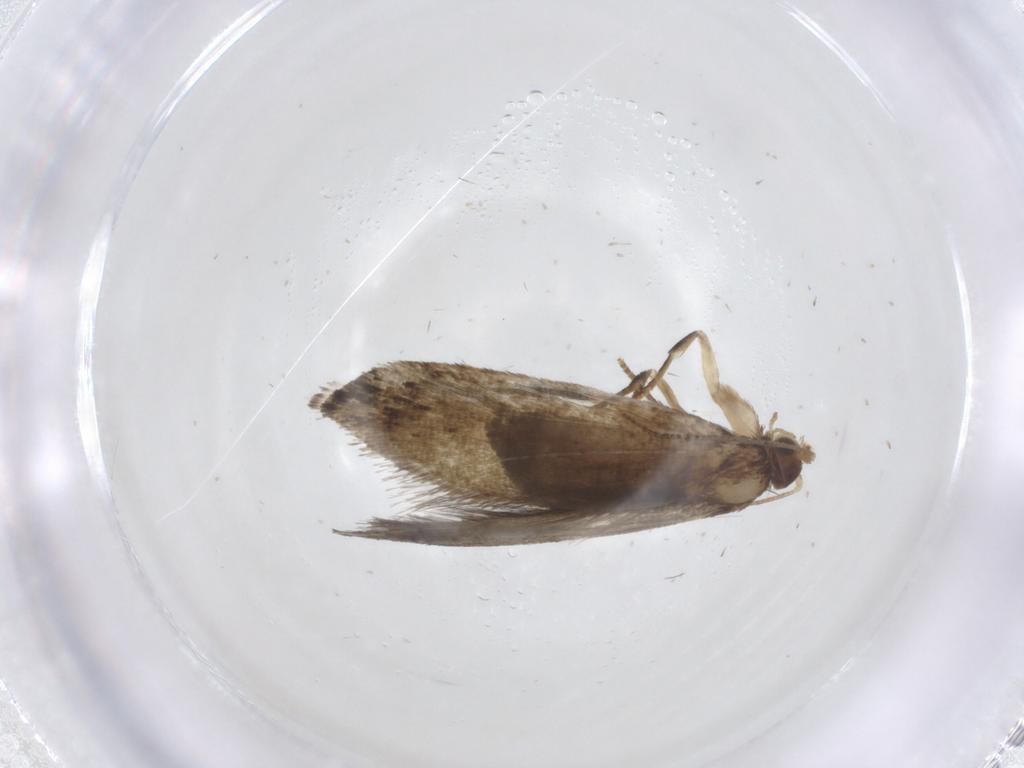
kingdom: Animalia
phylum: Arthropoda
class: Insecta
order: Lepidoptera
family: Tineidae
